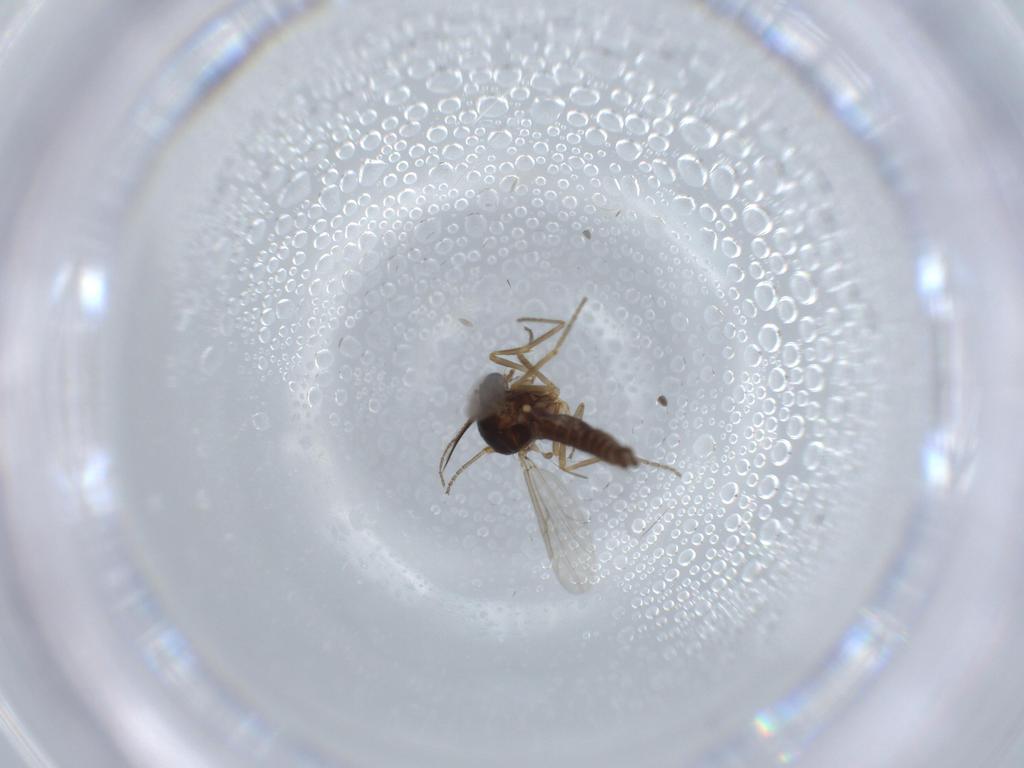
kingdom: Animalia
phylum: Arthropoda
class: Insecta
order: Diptera
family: Ceratopogonidae
